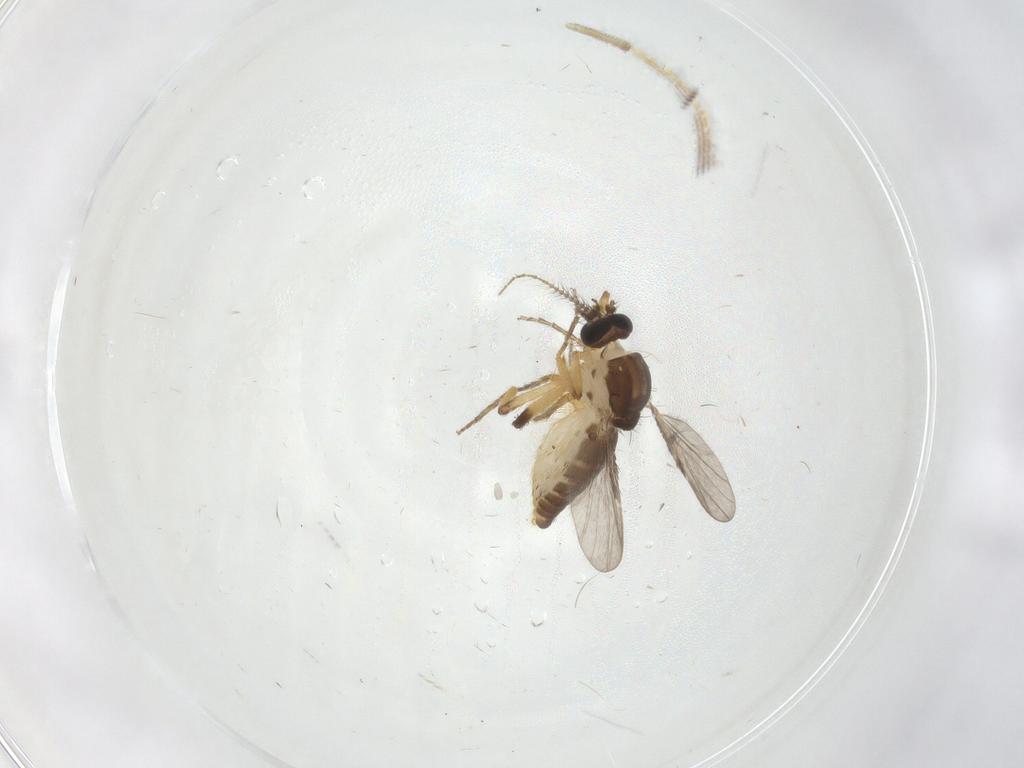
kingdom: Animalia
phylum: Arthropoda
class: Insecta
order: Diptera
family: Ceratopogonidae
